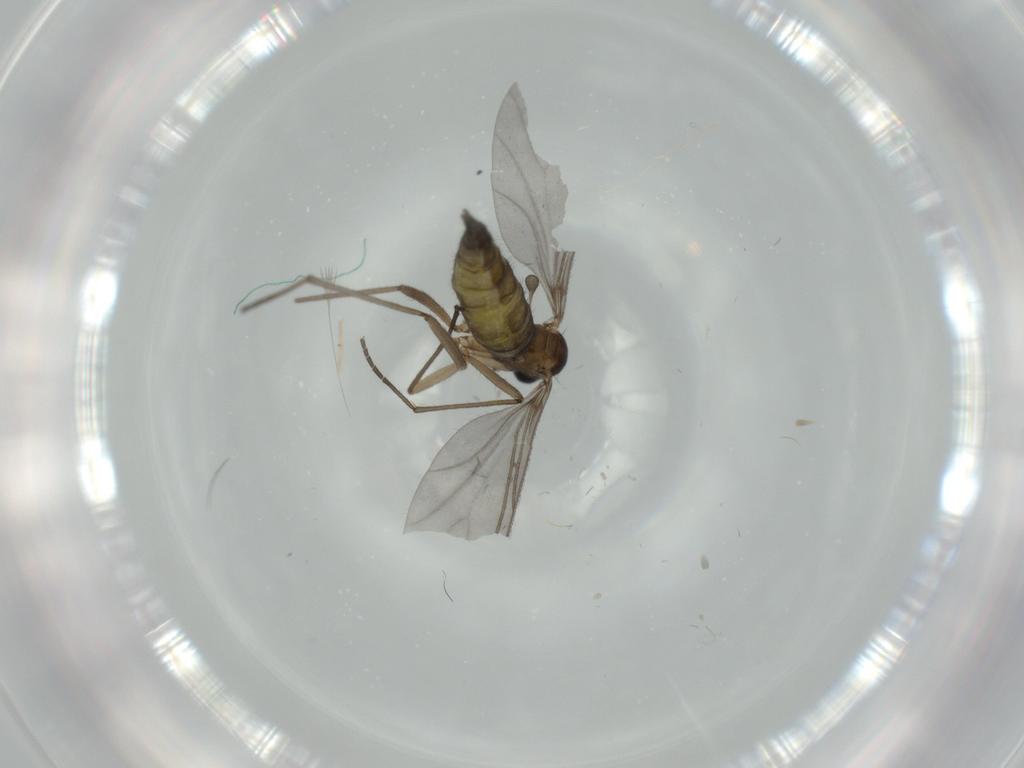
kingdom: Animalia
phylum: Arthropoda
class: Insecta
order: Diptera
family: Sciaridae
